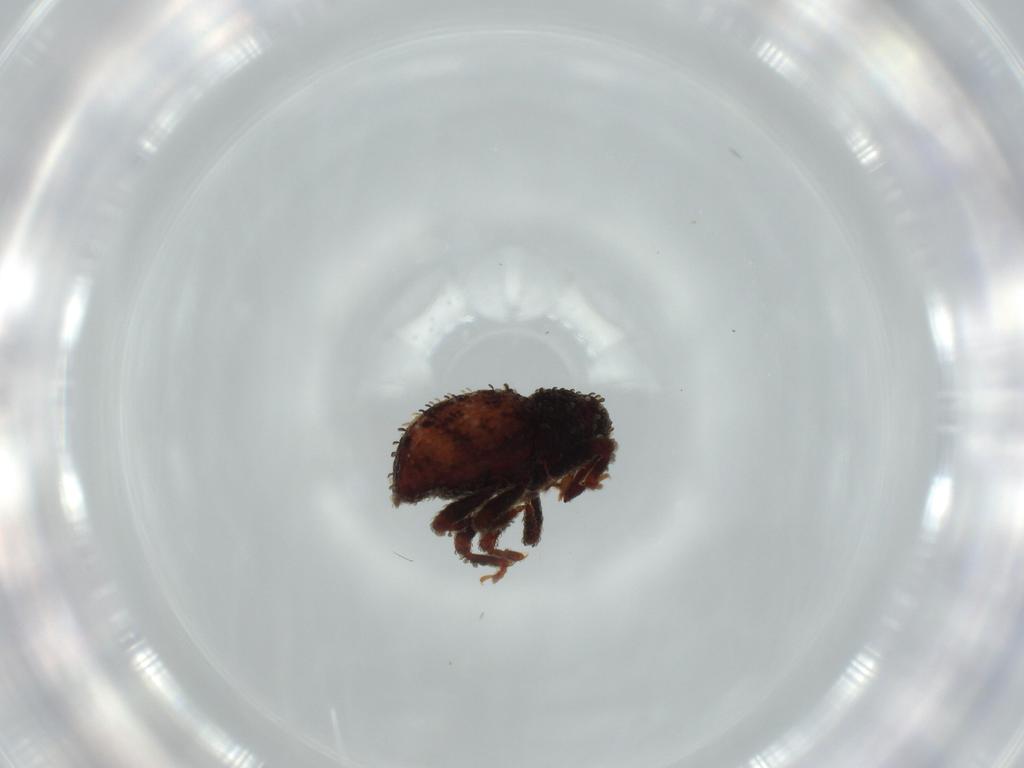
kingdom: Animalia
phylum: Arthropoda
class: Insecta
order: Coleoptera
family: Curculionidae
